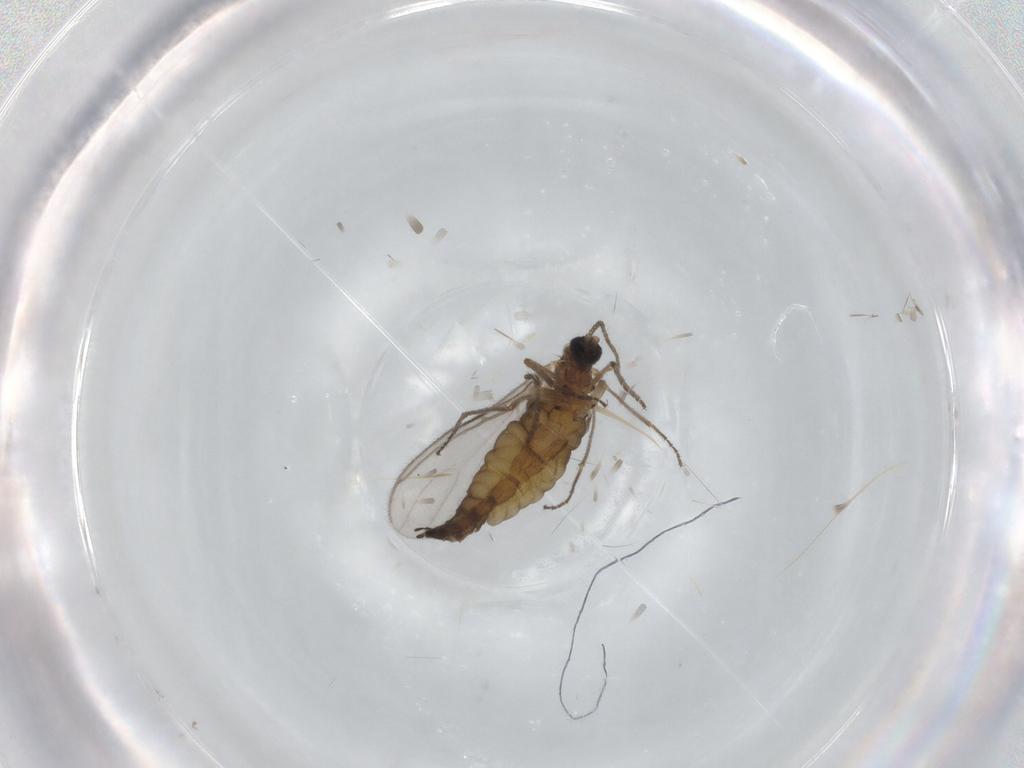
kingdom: Animalia
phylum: Arthropoda
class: Insecta
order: Diptera
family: Sciaridae
